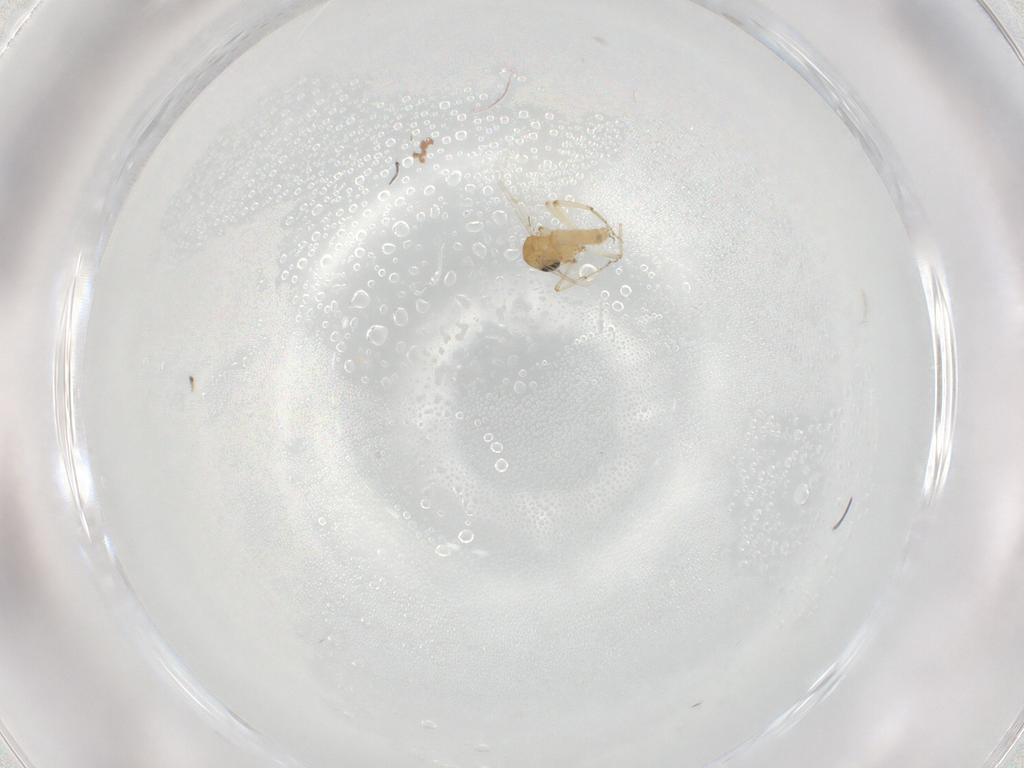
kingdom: Animalia
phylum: Arthropoda
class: Insecta
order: Diptera
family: Ceratopogonidae
